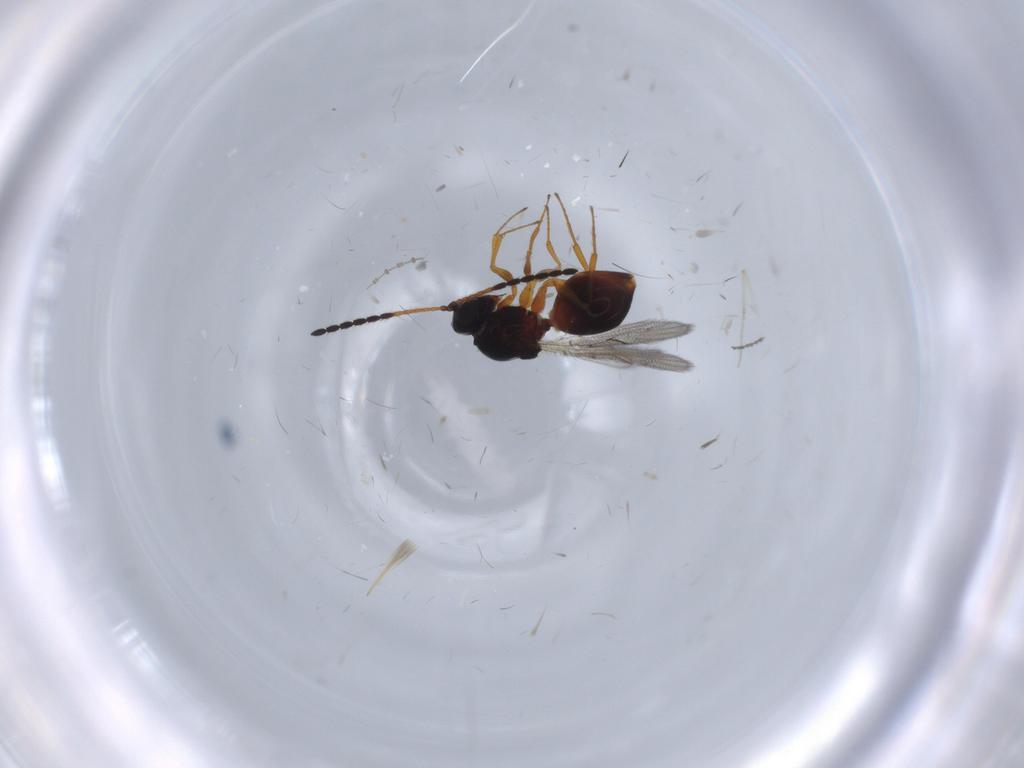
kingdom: Animalia
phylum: Arthropoda
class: Insecta
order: Hymenoptera
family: Figitidae
